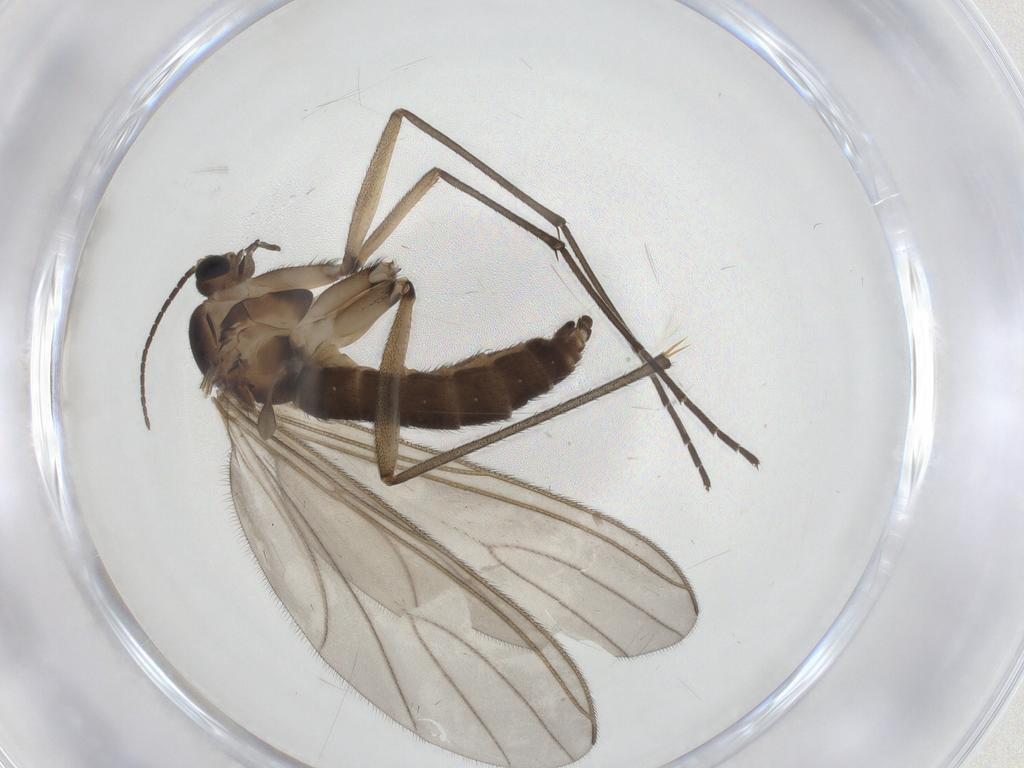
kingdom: Animalia
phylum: Arthropoda
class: Insecta
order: Diptera
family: Sciaridae
